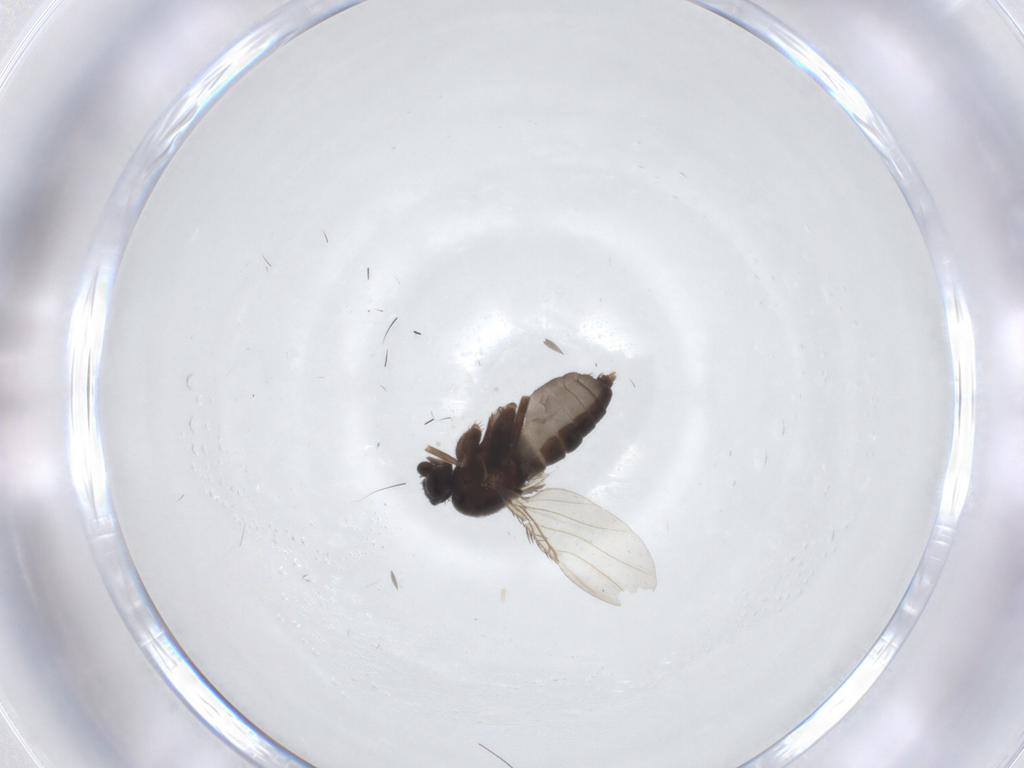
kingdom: Animalia
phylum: Arthropoda
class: Insecta
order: Diptera
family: Phoridae
